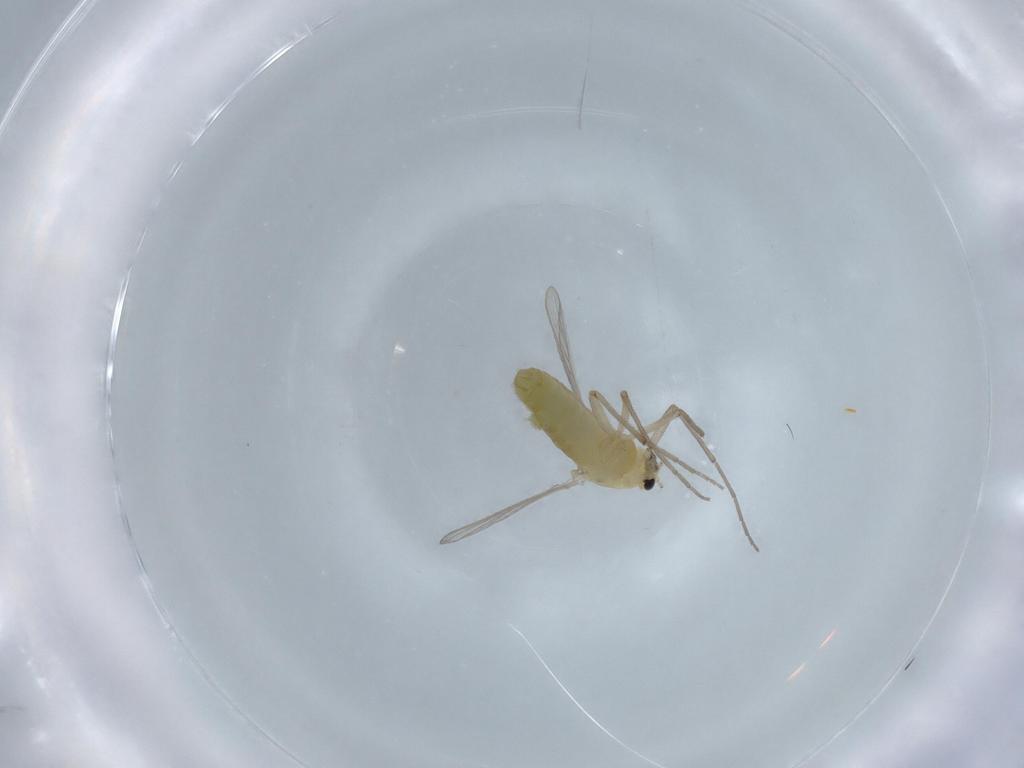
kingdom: Animalia
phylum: Arthropoda
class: Insecta
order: Diptera
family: Chironomidae
